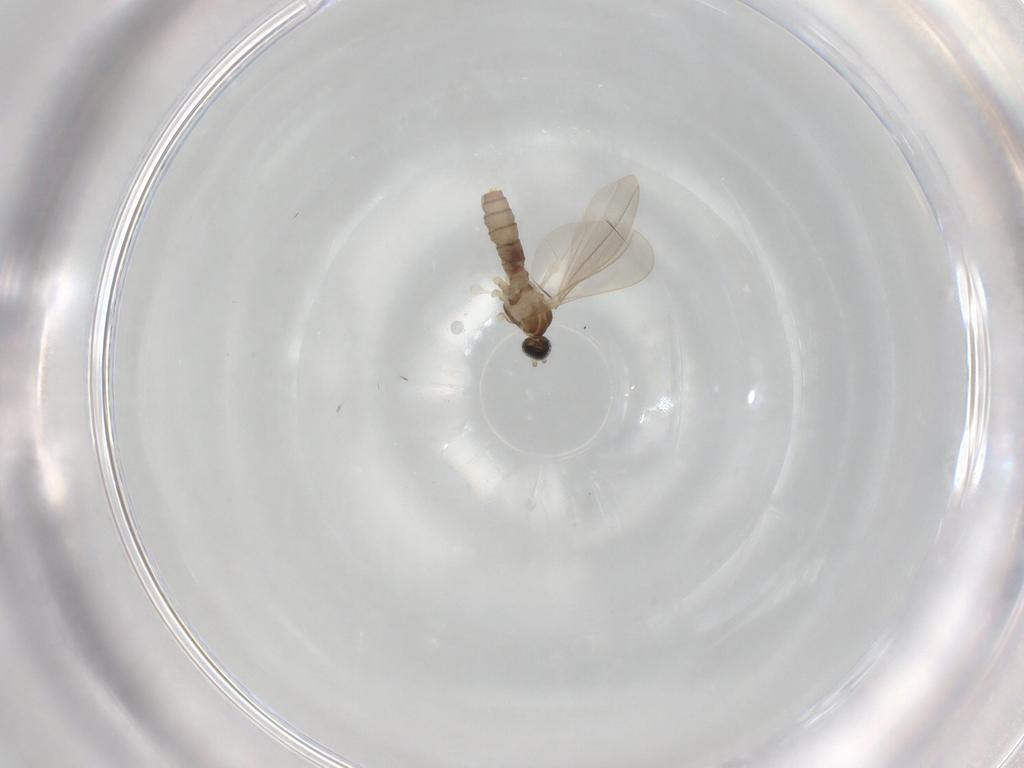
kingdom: Animalia
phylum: Arthropoda
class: Insecta
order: Diptera
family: Cecidomyiidae
